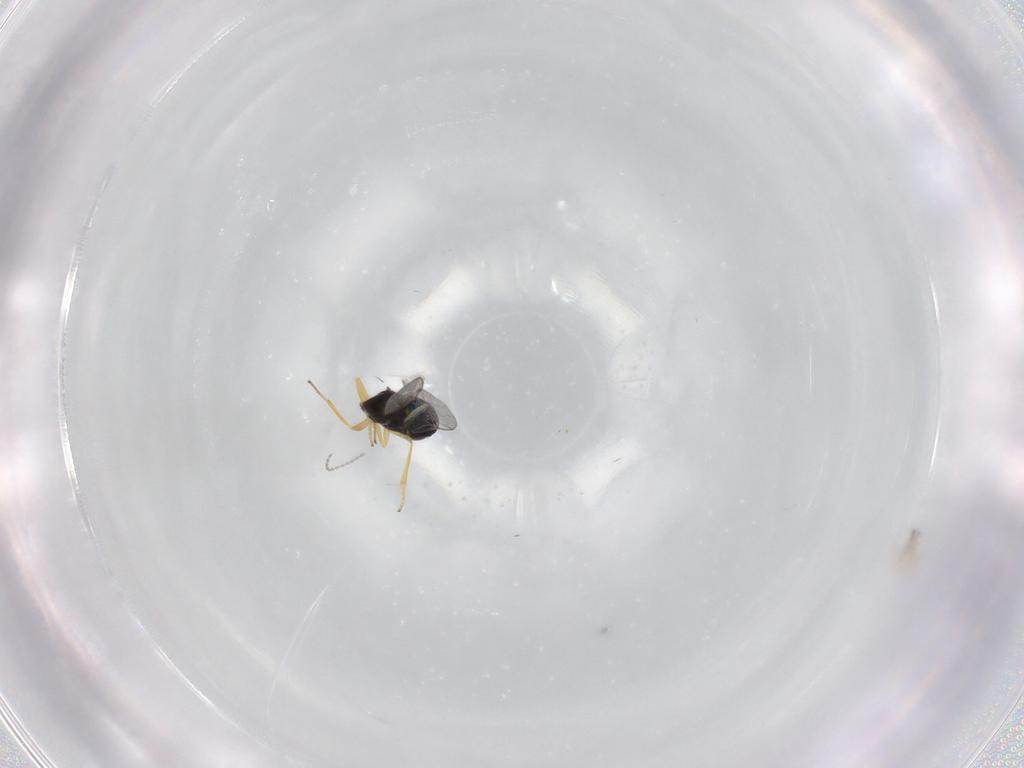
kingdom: Animalia
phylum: Arthropoda
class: Insecta
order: Hymenoptera
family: Encyrtidae
